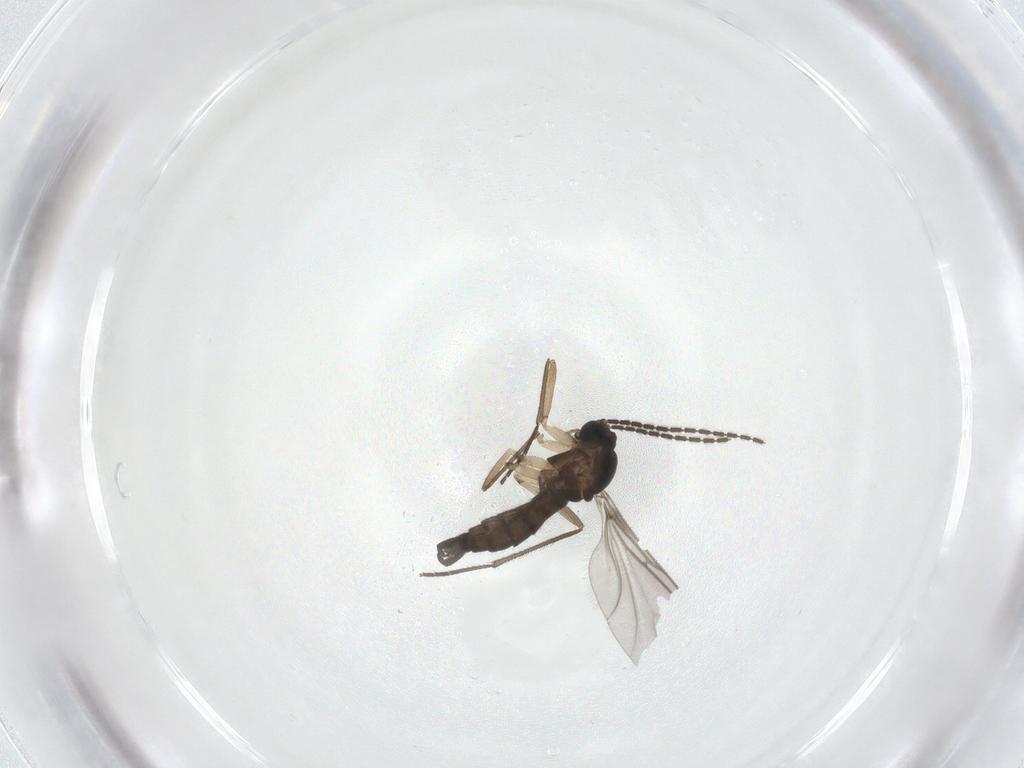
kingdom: Animalia
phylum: Arthropoda
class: Insecta
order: Diptera
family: Sciaridae
